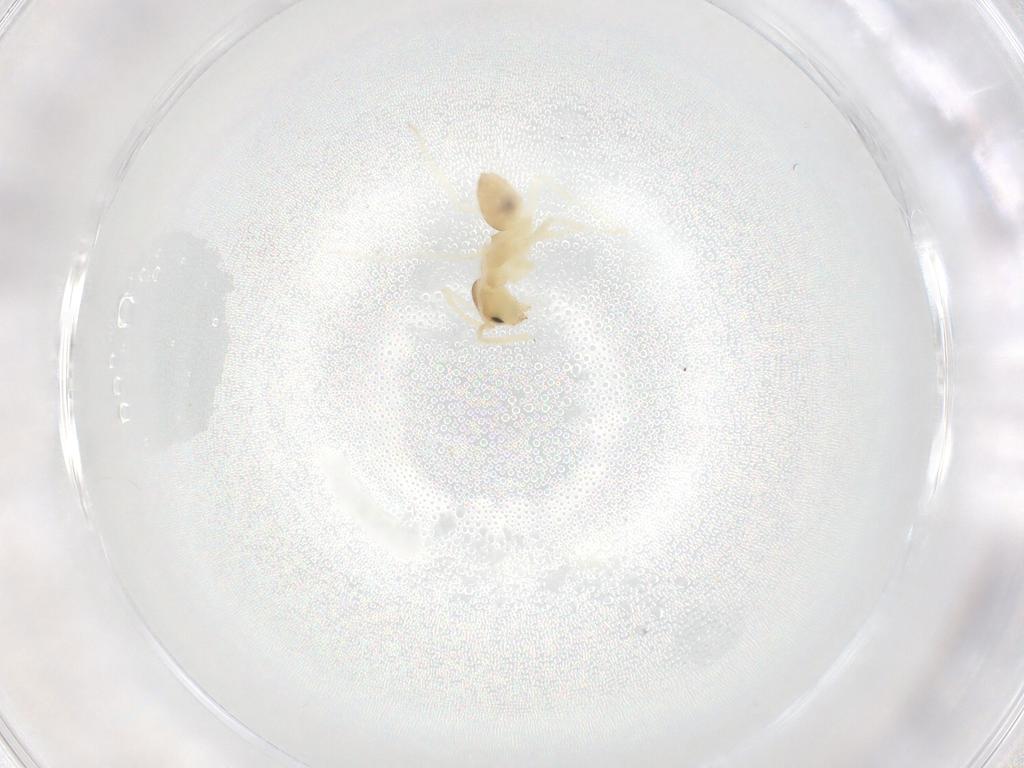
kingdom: Animalia
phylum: Arthropoda
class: Insecta
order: Hymenoptera
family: Formicidae
